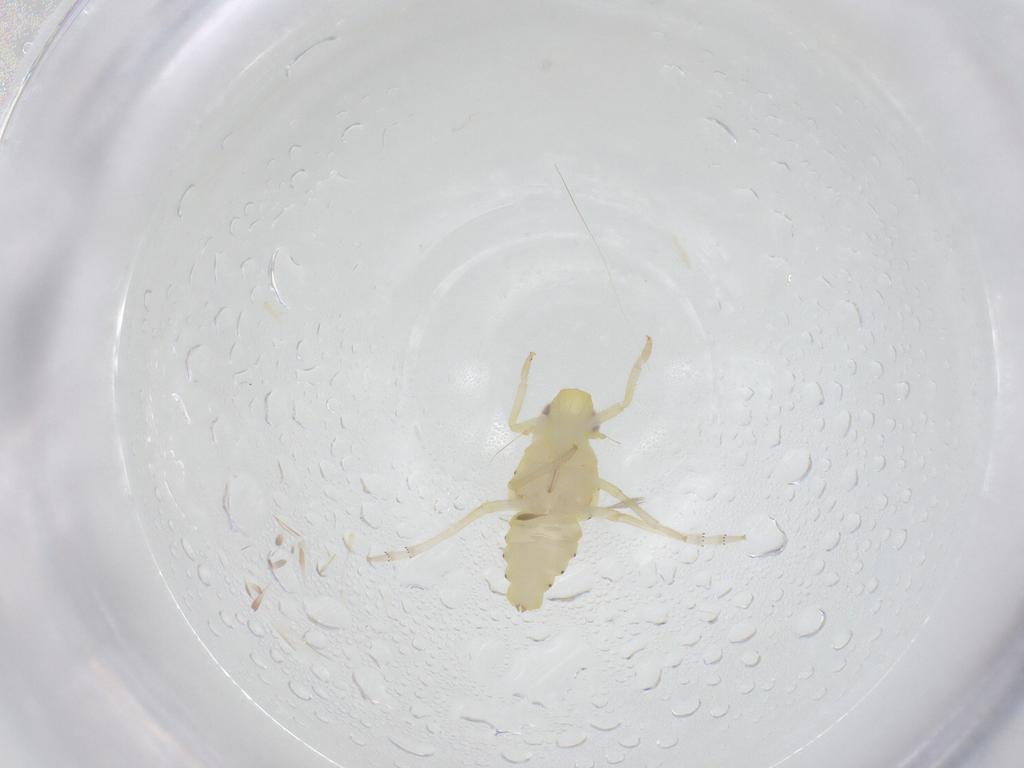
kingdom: Animalia
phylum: Arthropoda
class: Insecta
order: Hemiptera
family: Tropiduchidae
